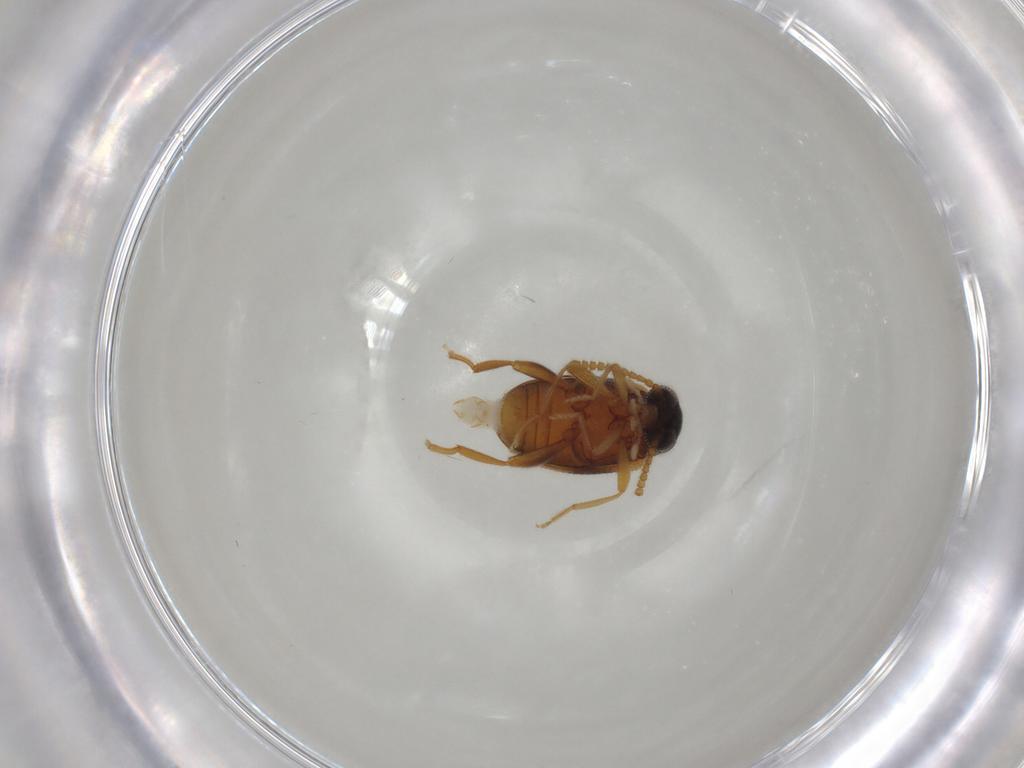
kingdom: Animalia
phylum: Arthropoda
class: Insecta
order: Coleoptera
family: Aderidae
